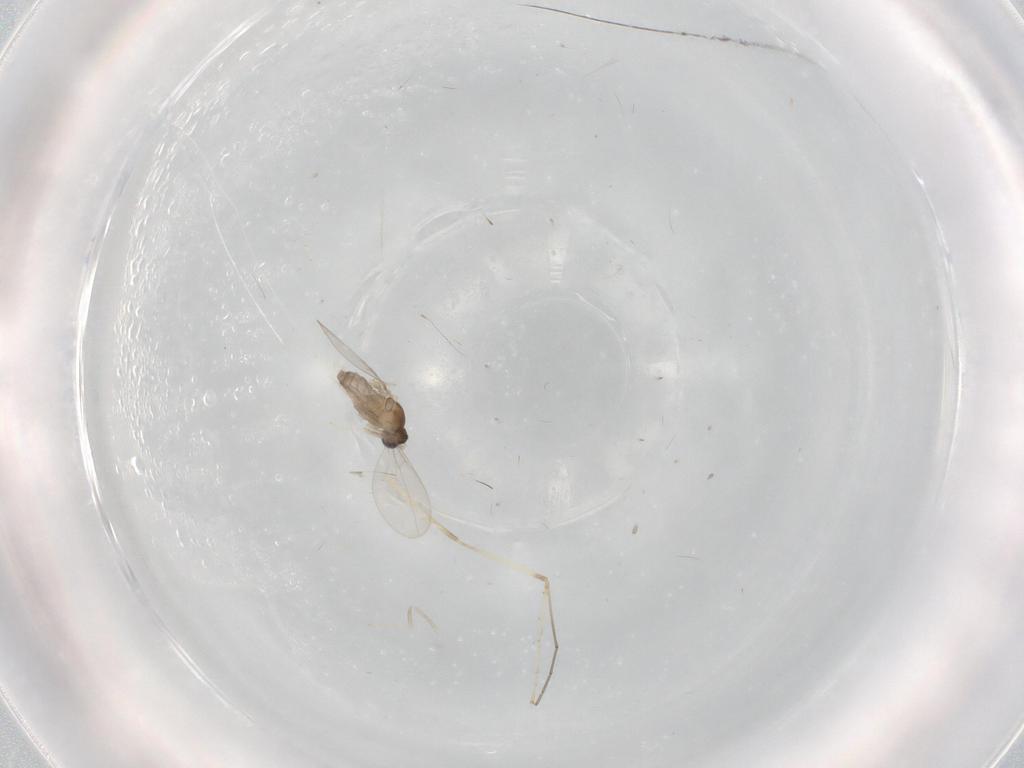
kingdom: Animalia
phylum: Arthropoda
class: Insecta
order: Diptera
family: Cecidomyiidae
